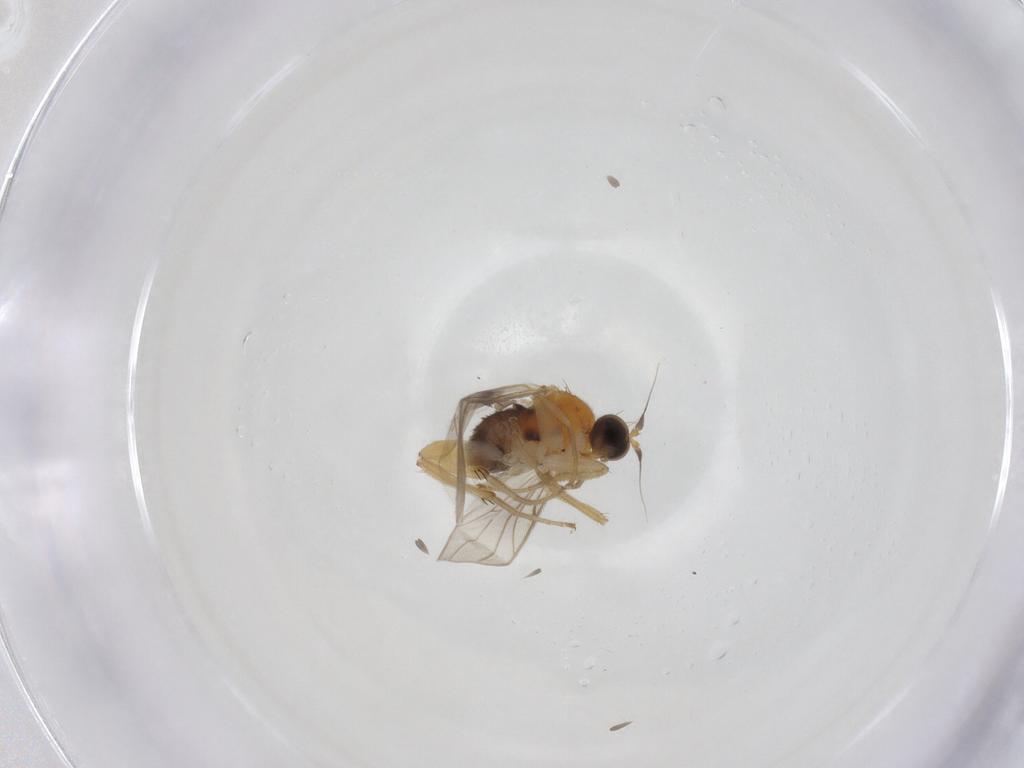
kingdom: Animalia
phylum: Arthropoda
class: Insecta
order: Diptera
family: Hybotidae
